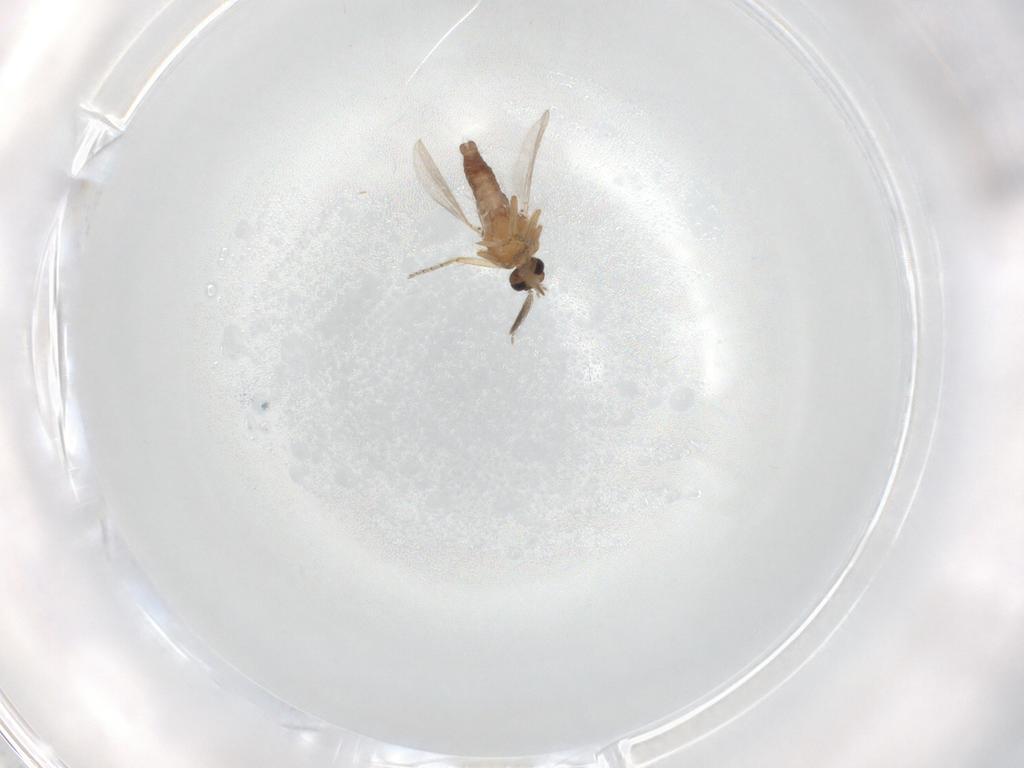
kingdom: Animalia
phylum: Arthropoda
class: Insecta
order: Diptera
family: Ceratopogonidae
